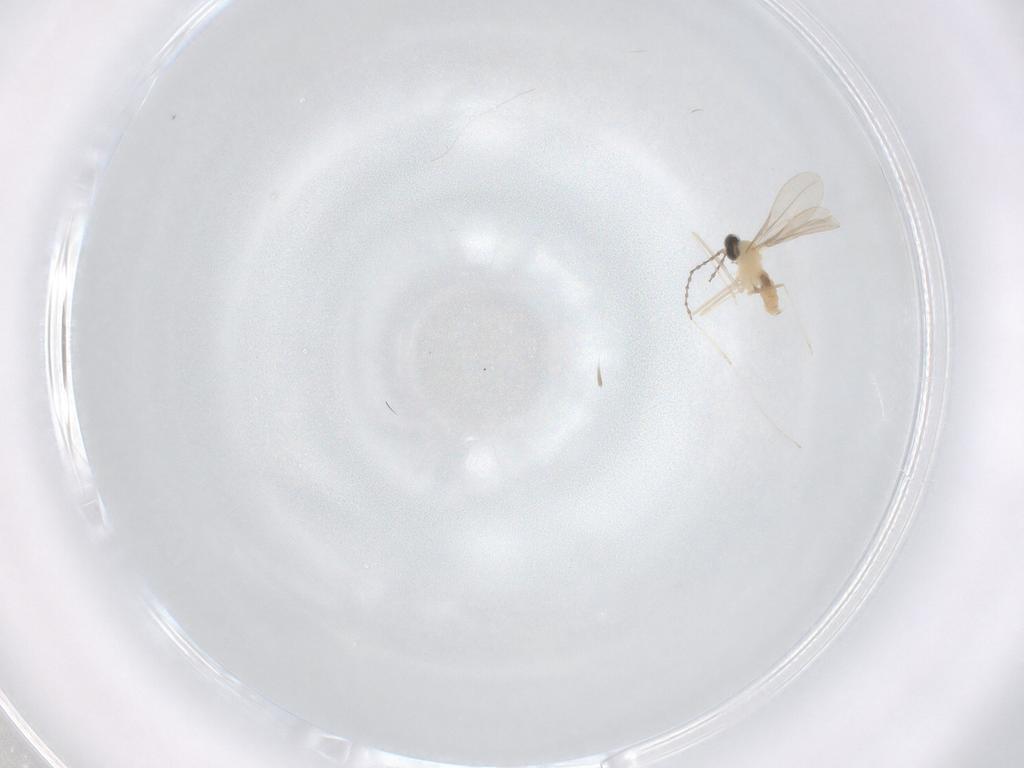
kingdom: Animalia
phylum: Arthropoda
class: Insecta
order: Diptera
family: Cecidomyiidae
